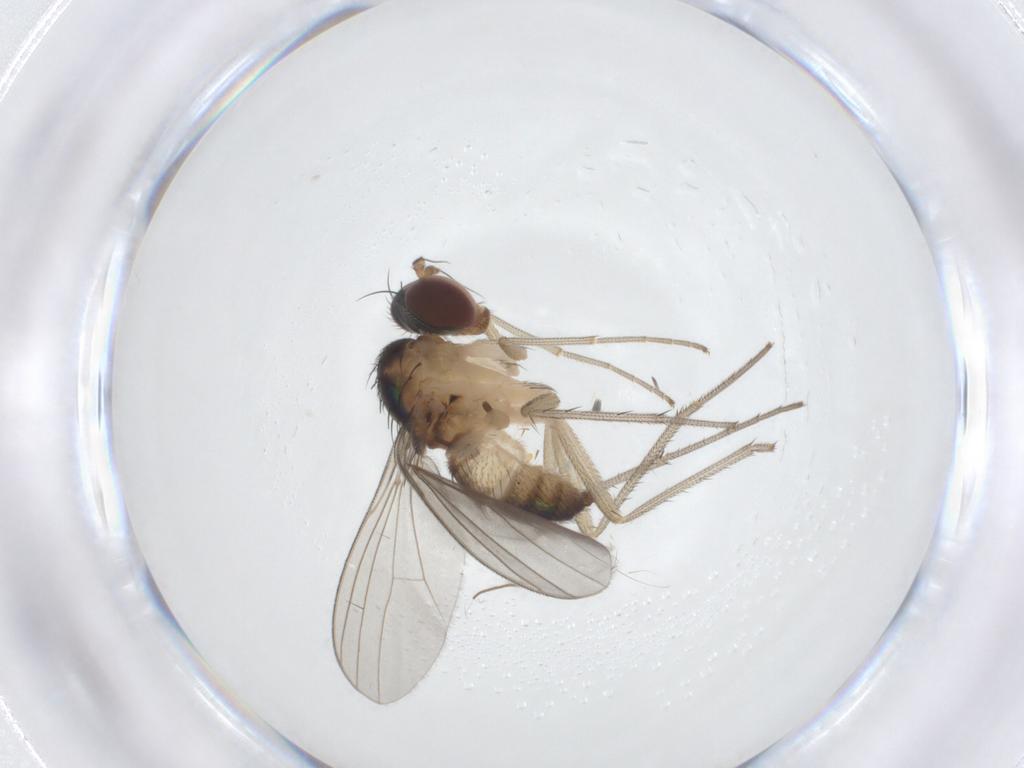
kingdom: Animalia
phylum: Arthropoda
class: Insecta
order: Diptera
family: Dolichopodidae
